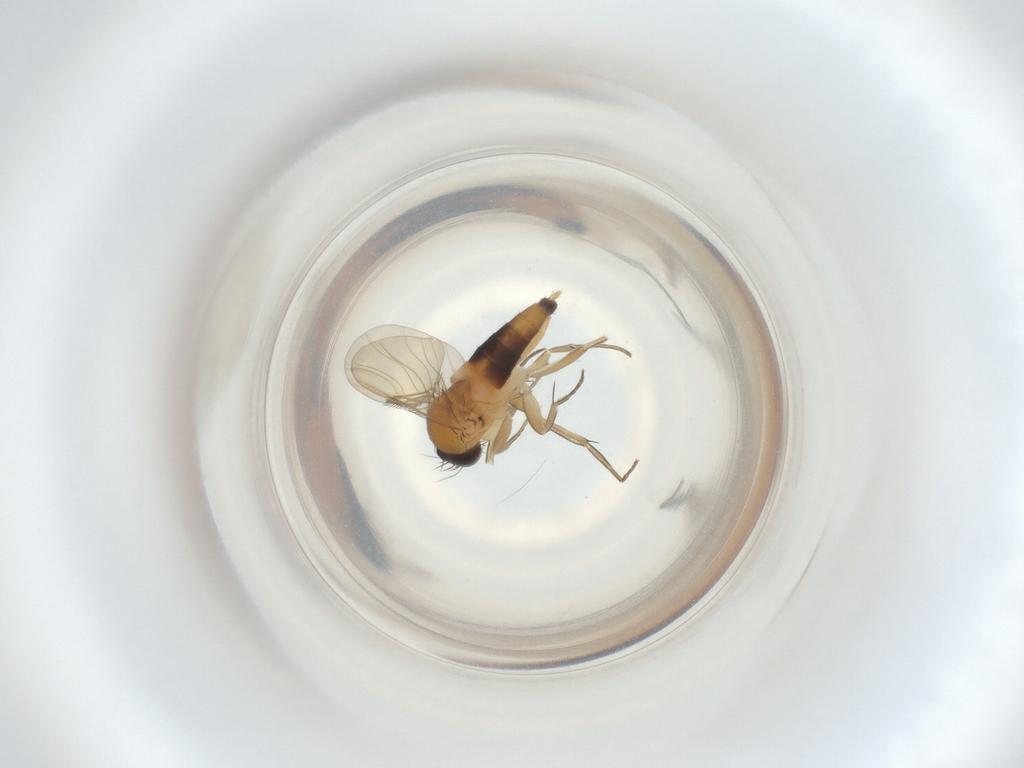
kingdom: Animalia
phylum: Arthropoda
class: Insecta
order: Diptera
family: Phoridae
